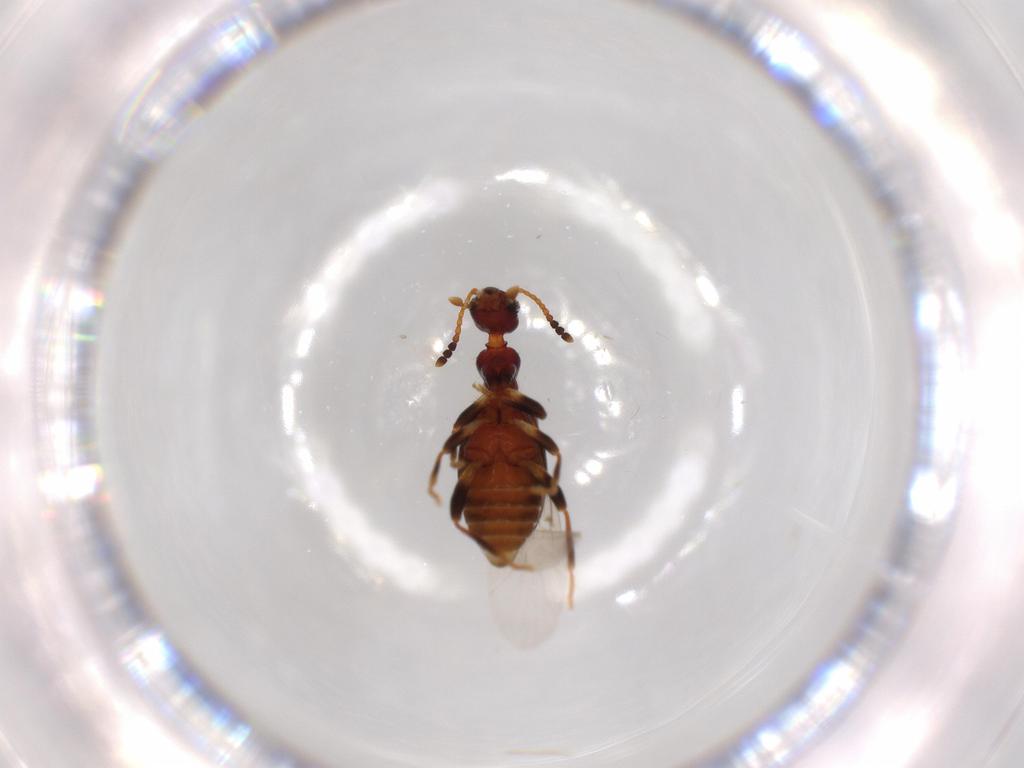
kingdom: Animalia
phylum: Arthropoda
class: Insecta
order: Coleoptera
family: Anthicidae
